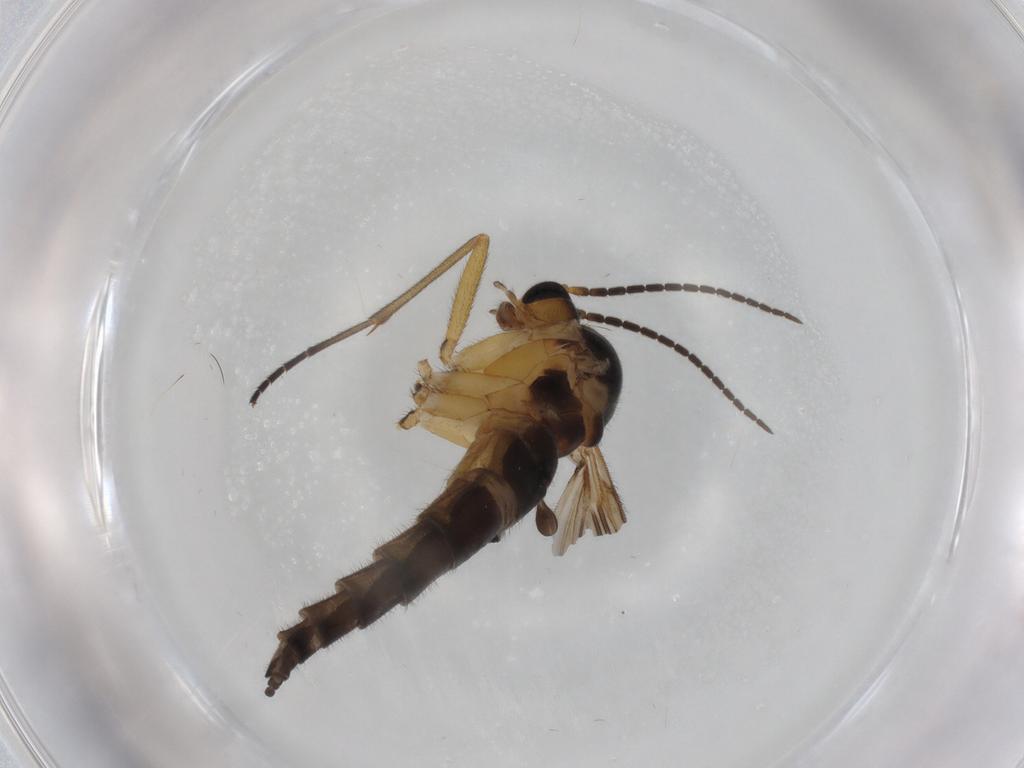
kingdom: Animalia
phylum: Arthropoda
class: Insecta
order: Diptera
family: Sciaridae
